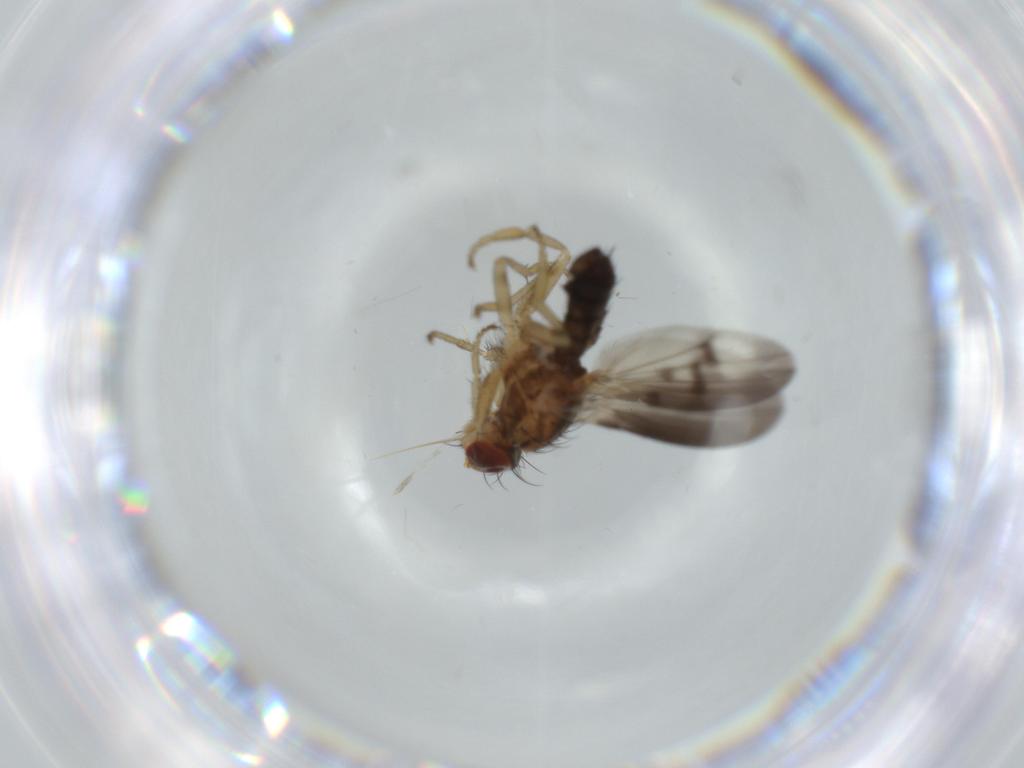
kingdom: Animalia
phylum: Arthropoda
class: Insecta
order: Diptera
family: Heleomyzidae
